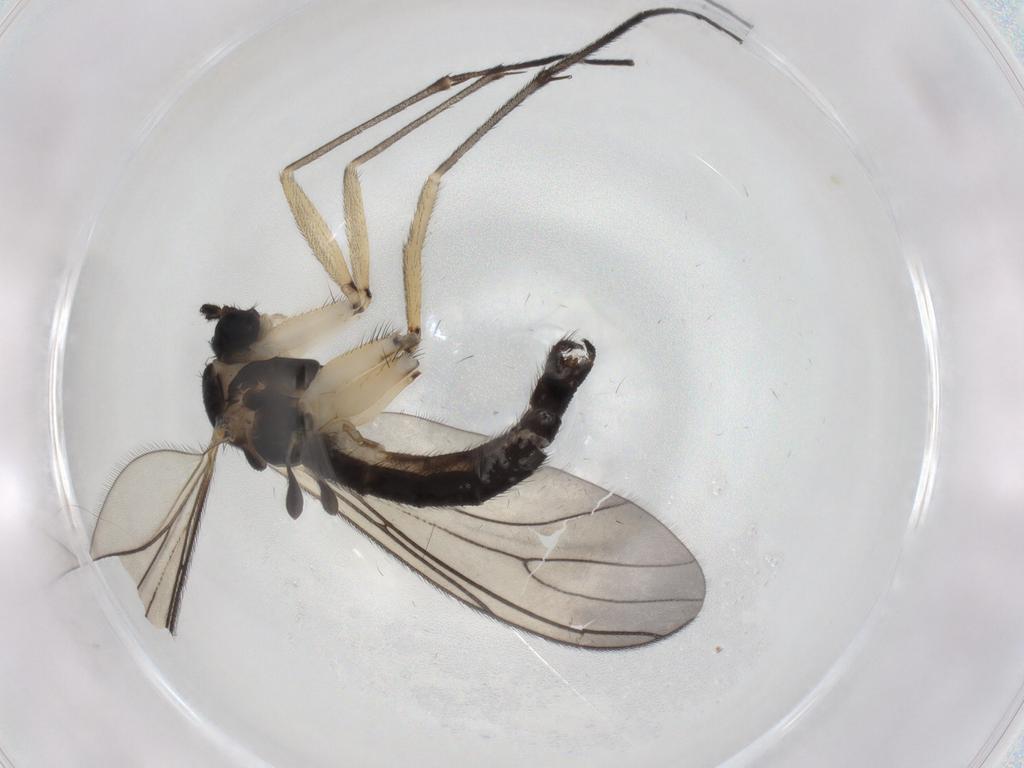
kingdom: Animalia
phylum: Arthropoda
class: Insecta
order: Diptera
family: Sciaridae
